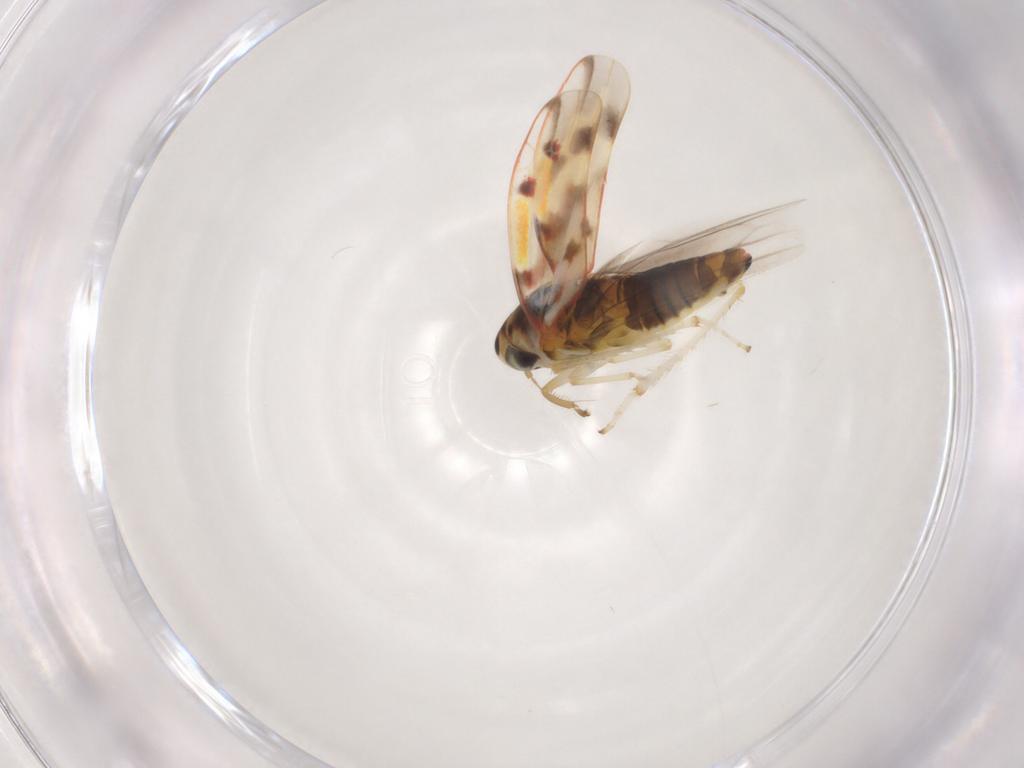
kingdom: Animalia
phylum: Arthropoda
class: Insecta
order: Hemiptera
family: Cicadellidae
